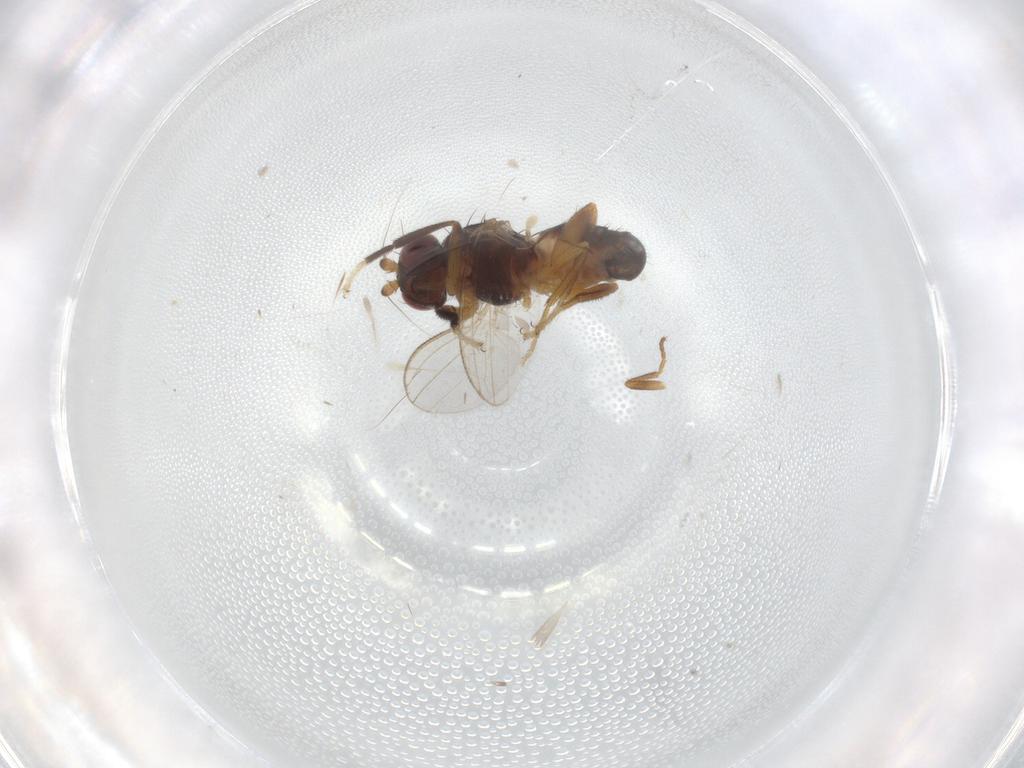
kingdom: Animalia
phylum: Arthropoda
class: Insecta
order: Diptera
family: Cypselosomatidae
